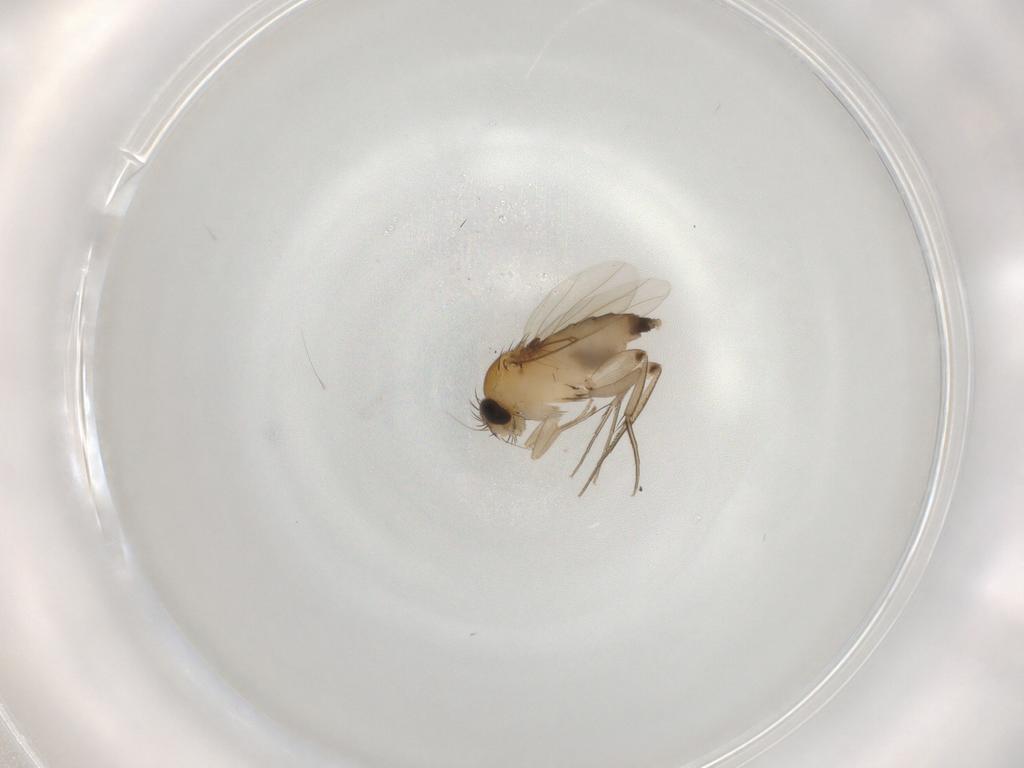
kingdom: Animalia
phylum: Arthropoda
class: Insecta
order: Diptera
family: Phoridae
